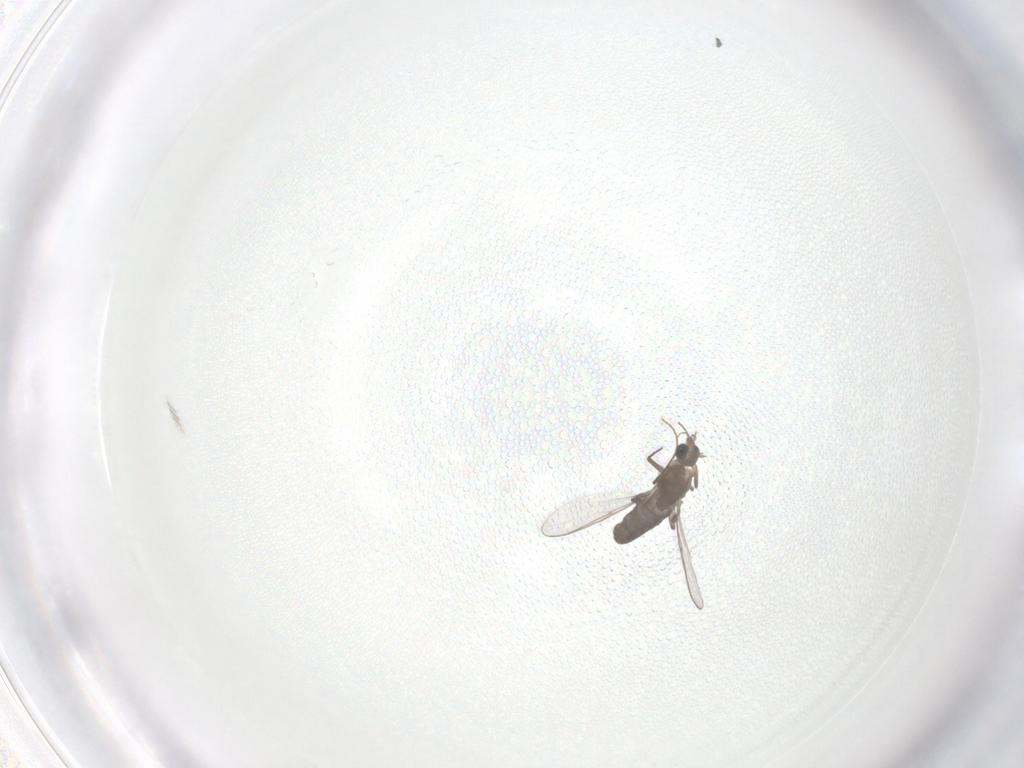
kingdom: Animalia
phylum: Arthropoda
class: Insecta
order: Diptera
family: Chironomidae
